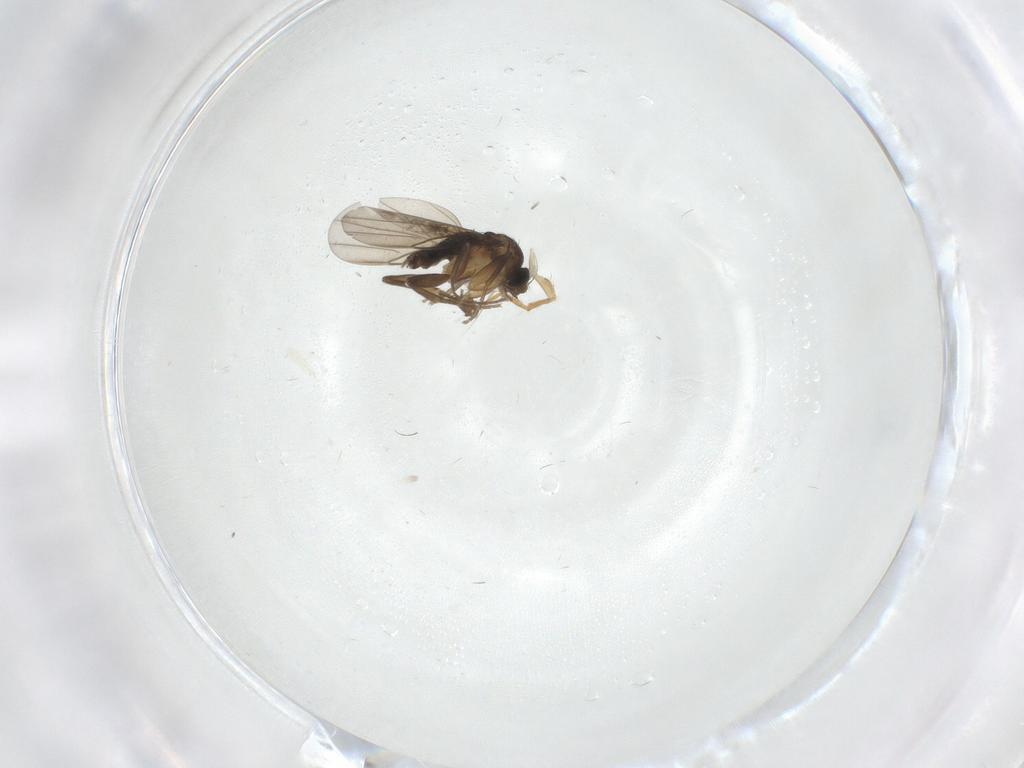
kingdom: Animalia
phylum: Arthropoda
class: Insecta
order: Diptera
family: Phoridae
